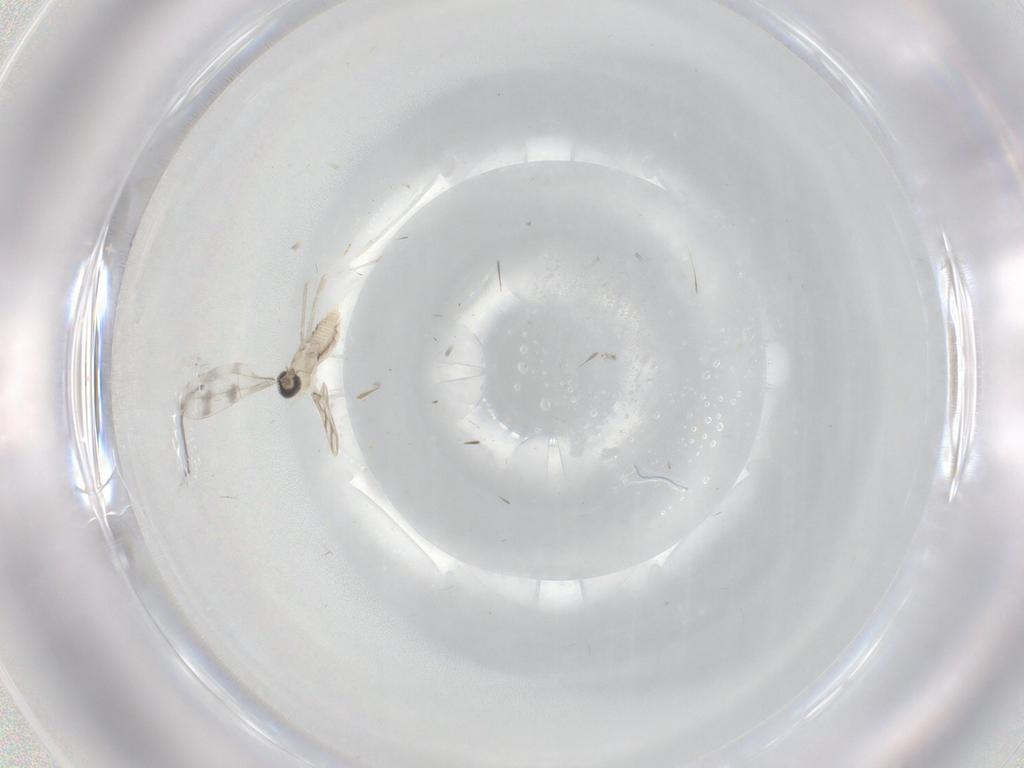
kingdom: Animalia
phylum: Arthropoda
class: Insecta
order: Diptera
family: Cecidomyiidae
